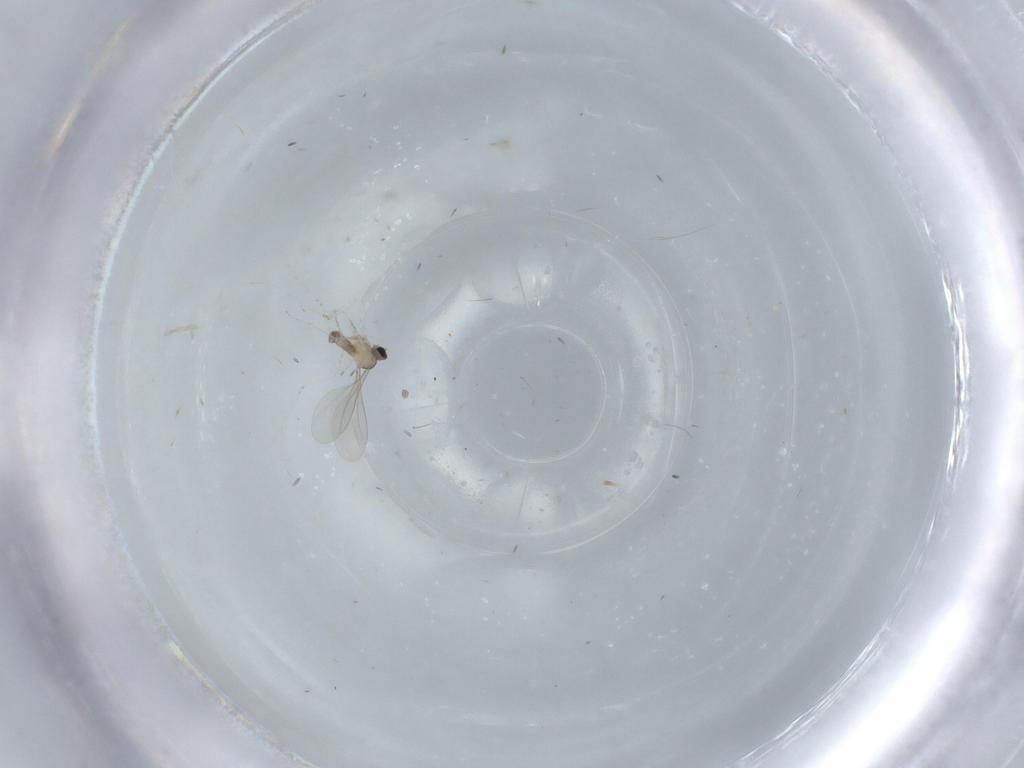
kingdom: Animalia
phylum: Arthropoda
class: Insecta
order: Diptera
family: Cecidomyiidae
